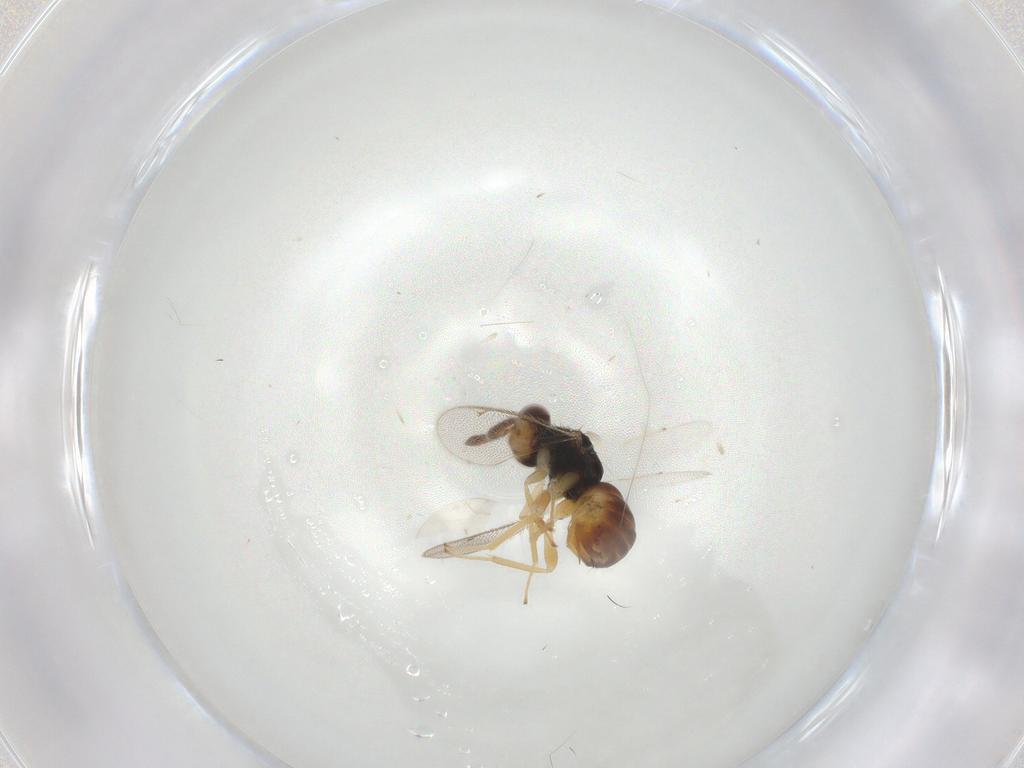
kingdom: Animalia
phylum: Arthropoda
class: Insecta
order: Hymenoptera
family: Eulophidae
